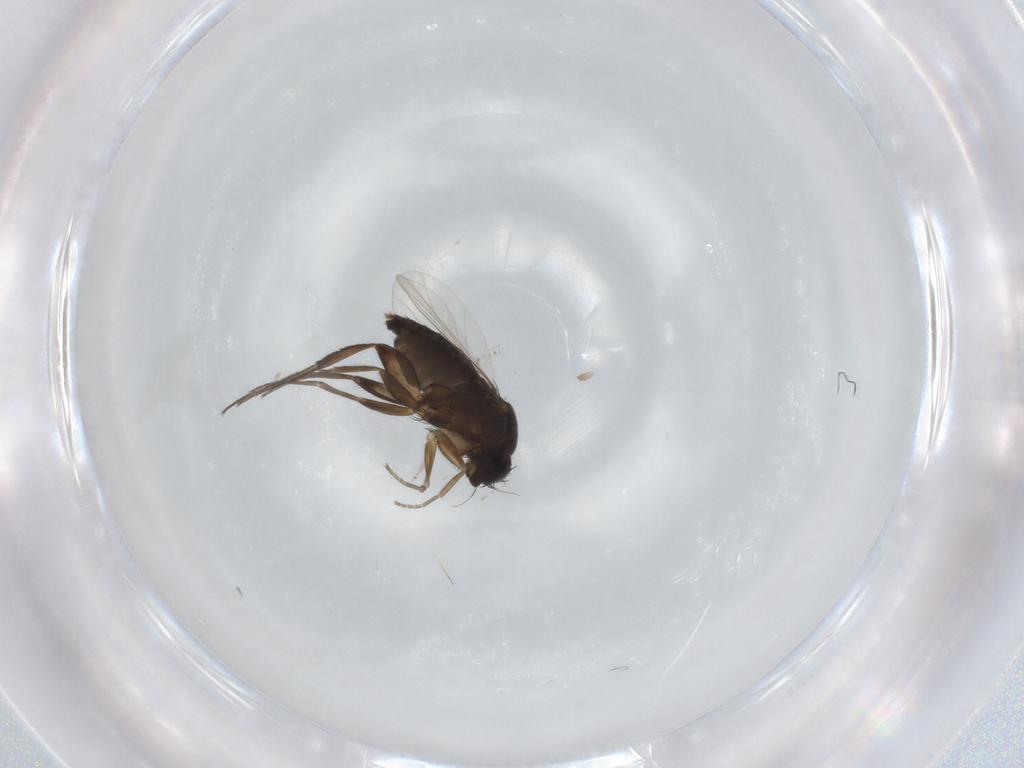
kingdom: Animalia
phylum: Arthropoda
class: Insecta
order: Diptera
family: Phoridae
